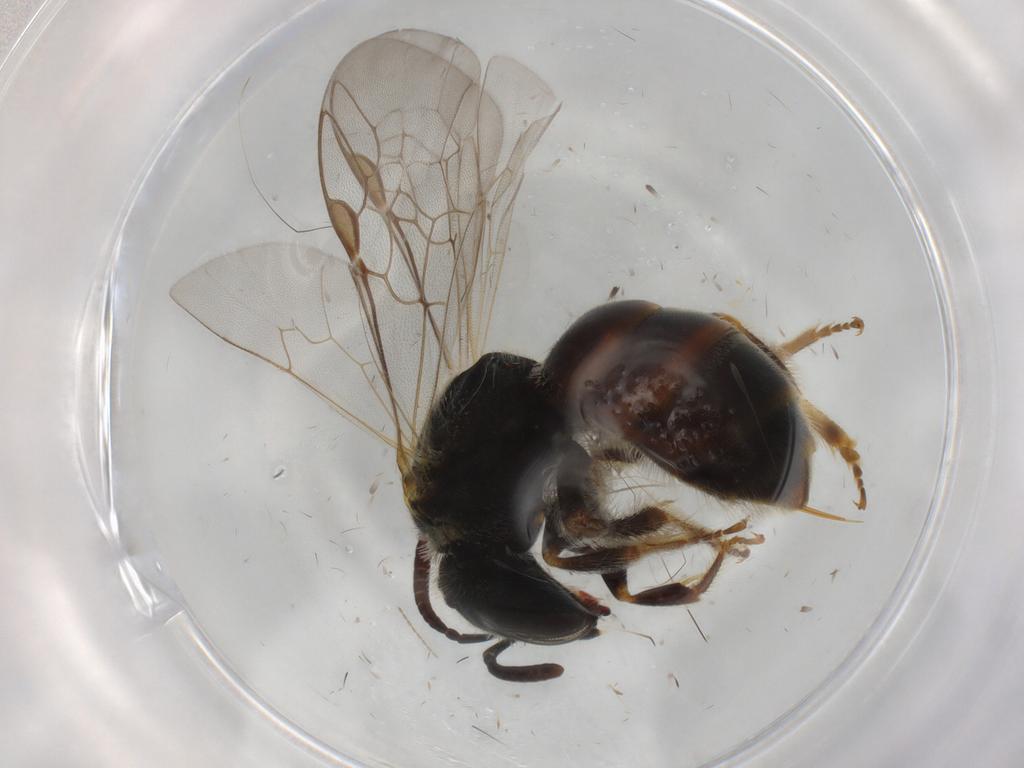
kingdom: Animalia
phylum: Arthropoda
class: Insecta
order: Hymenoptera
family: Halictidae
